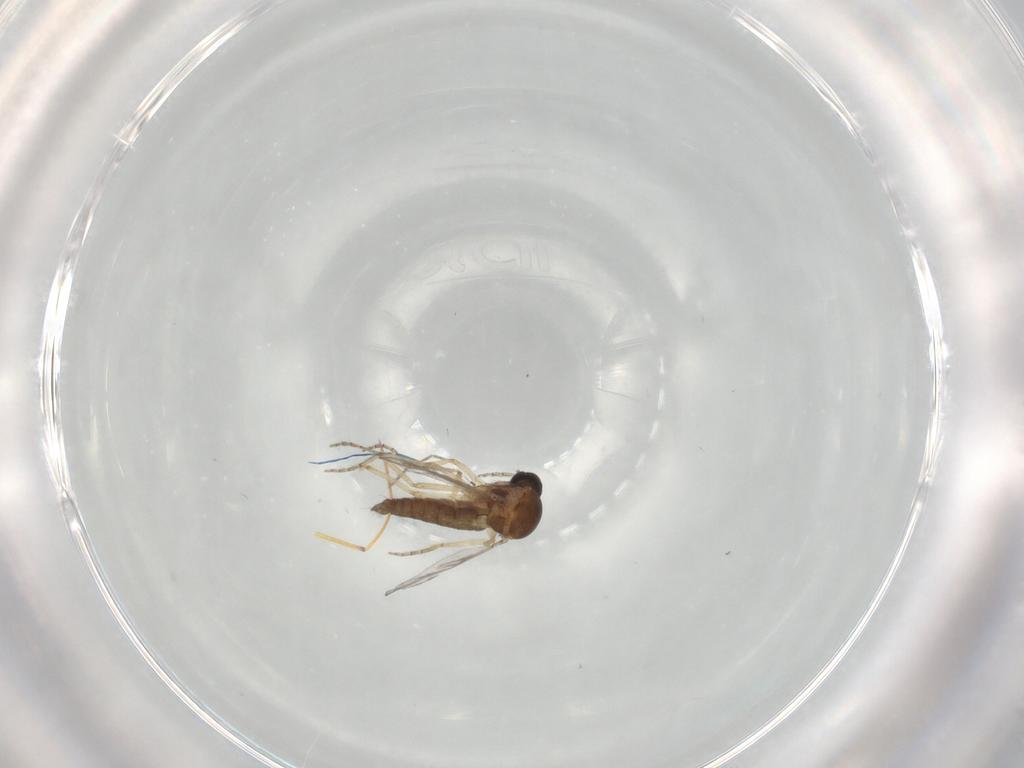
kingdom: Animalia
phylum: Arthropoda
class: Insecta
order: Diptera
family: Ceratopogonidae
